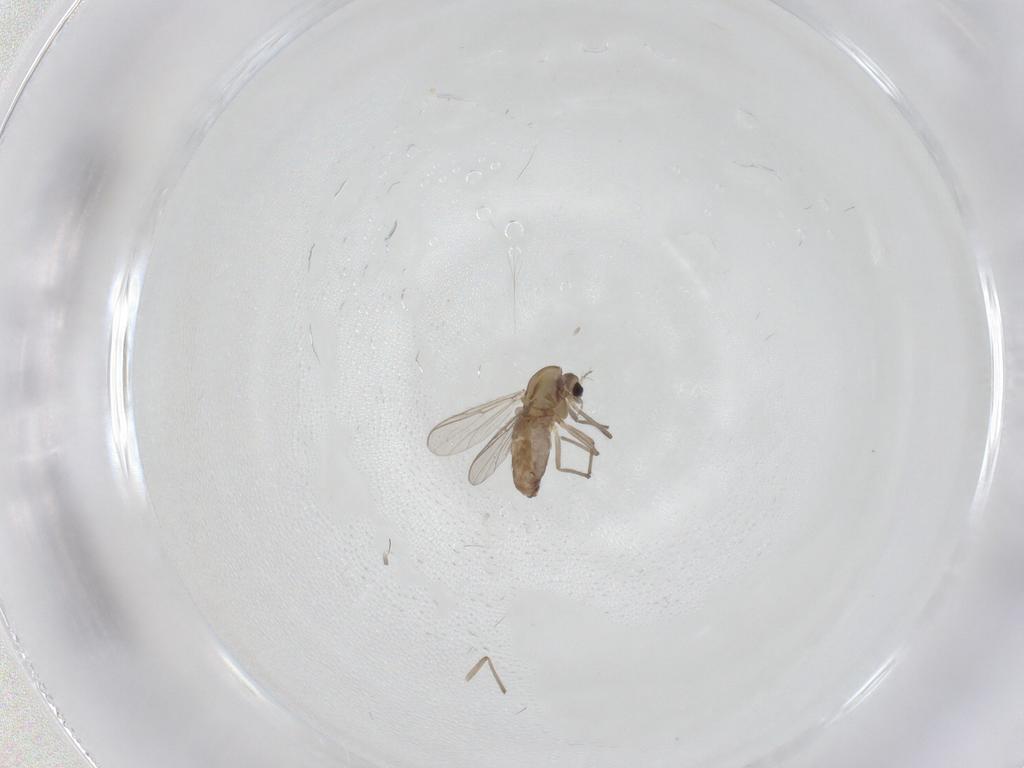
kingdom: Animalia
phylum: Arthropoda
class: Insecta
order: Diptera
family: Chironomidae
